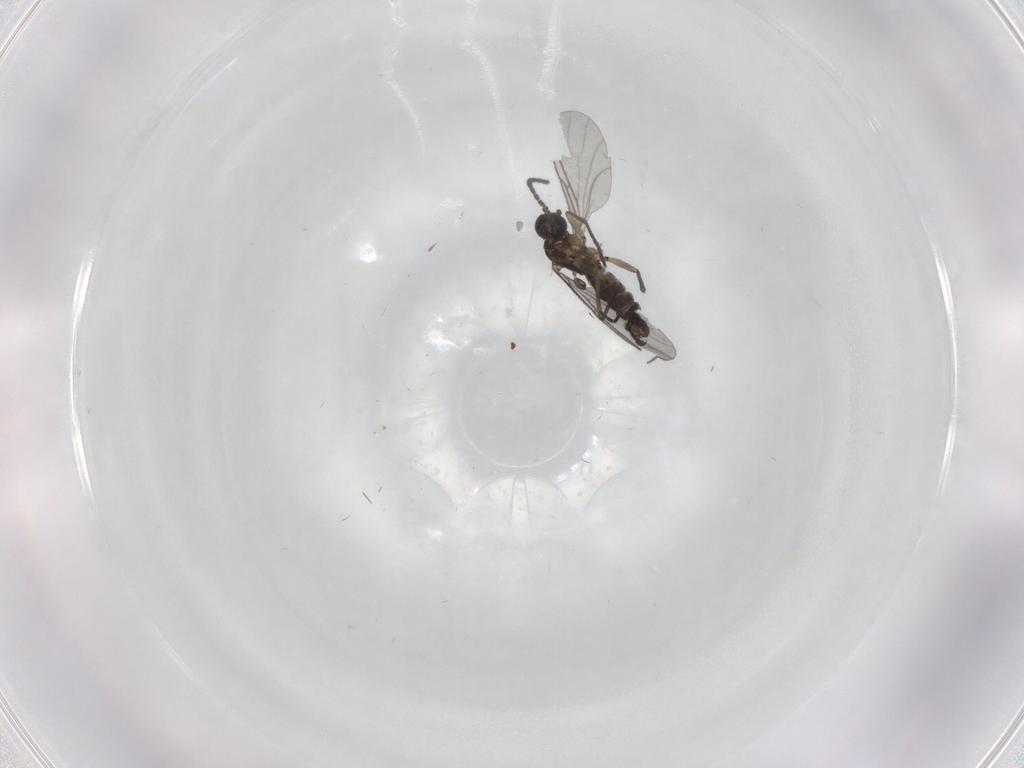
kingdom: Animalia
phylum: Arthropoda
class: Insecta
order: Diptera
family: Sciaridae
